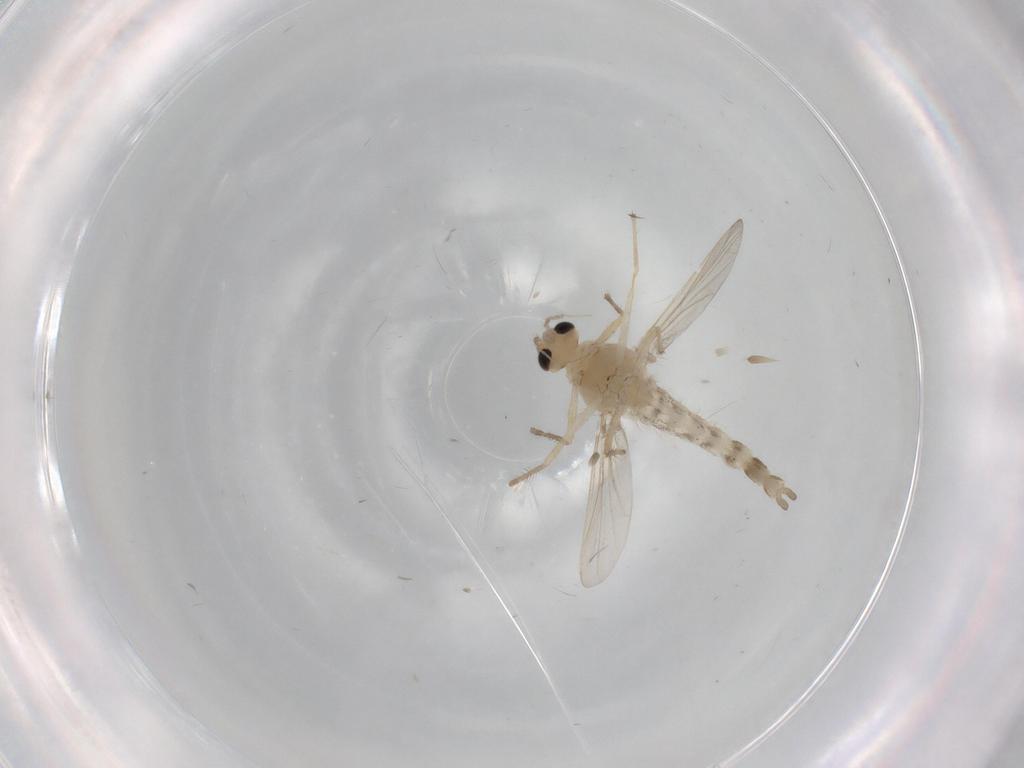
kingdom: Animalia
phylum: Arthropoda
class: Insecta
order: Diptera
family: Chironomidae
